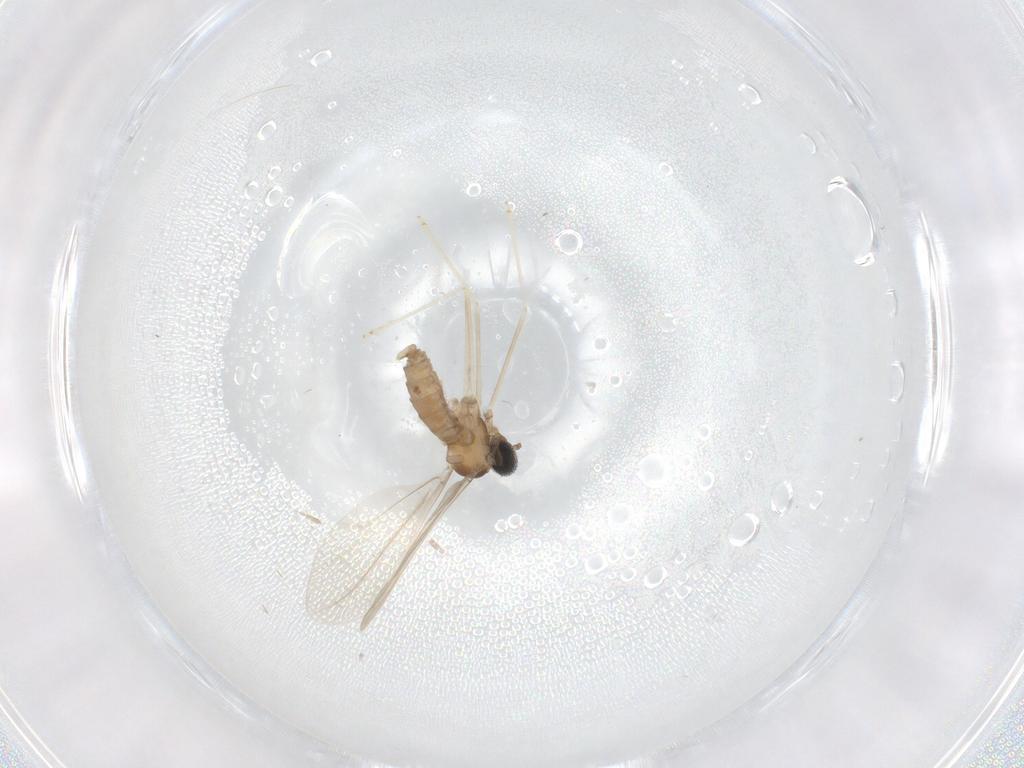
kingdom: Animalia
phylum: Arthropoda
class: Insecta
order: Diptera
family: Cecidomyiidae
